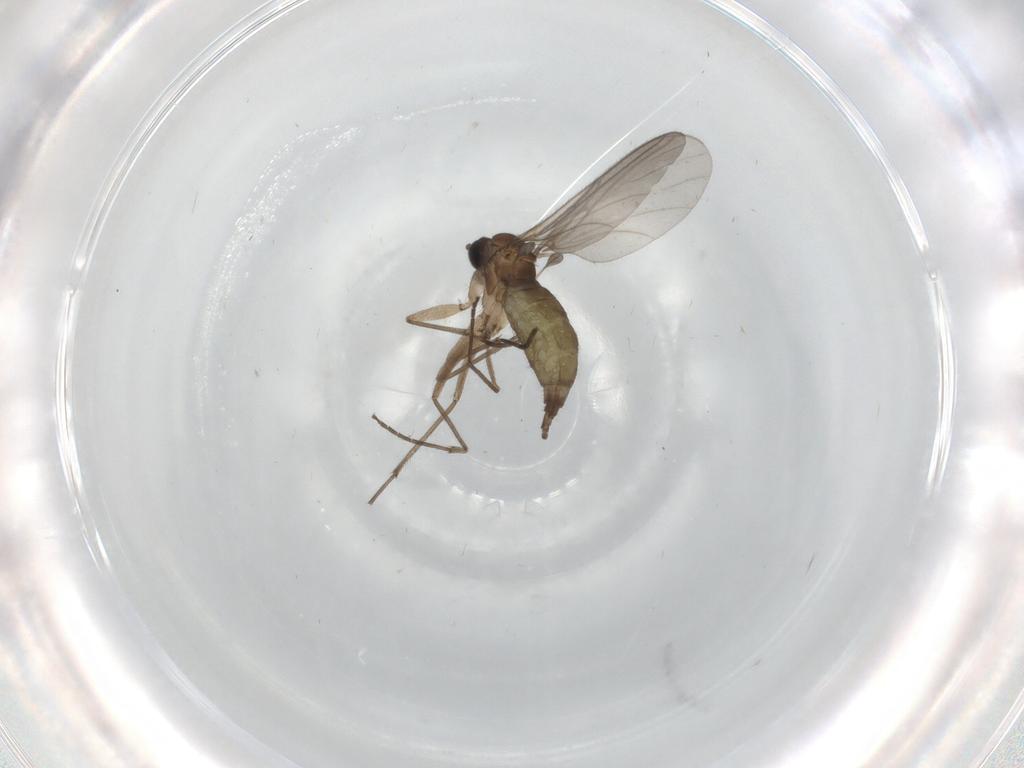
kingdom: Animalia
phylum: Arthropoda
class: Insecta
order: Diptera
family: Sciaridae
